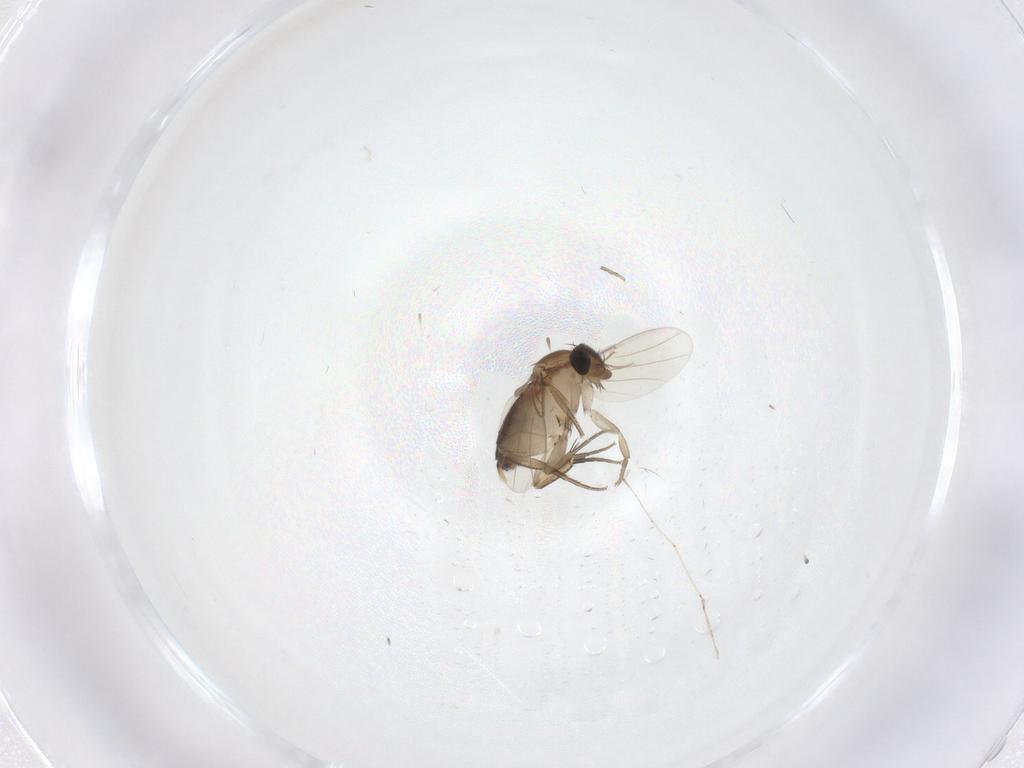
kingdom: Animalia
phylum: Arthropoda
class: Insecta
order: Diptera
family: Phoridae
